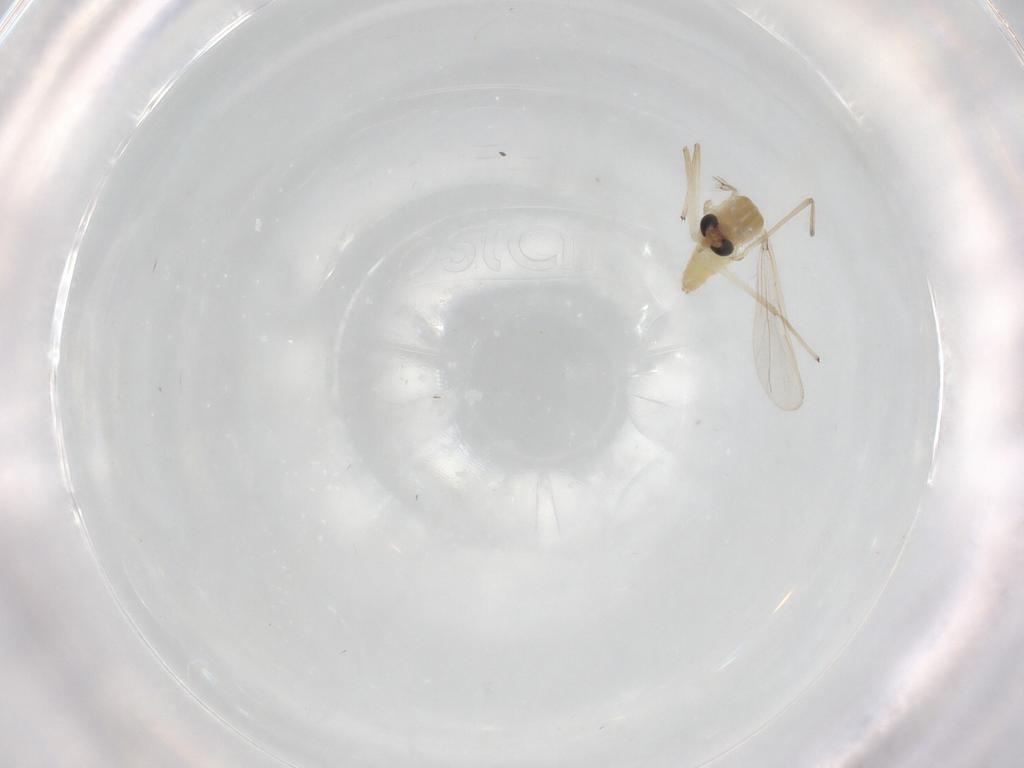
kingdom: Animalia
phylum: Arthropoda
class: Insecta
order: Diptera
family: Chironomidae
